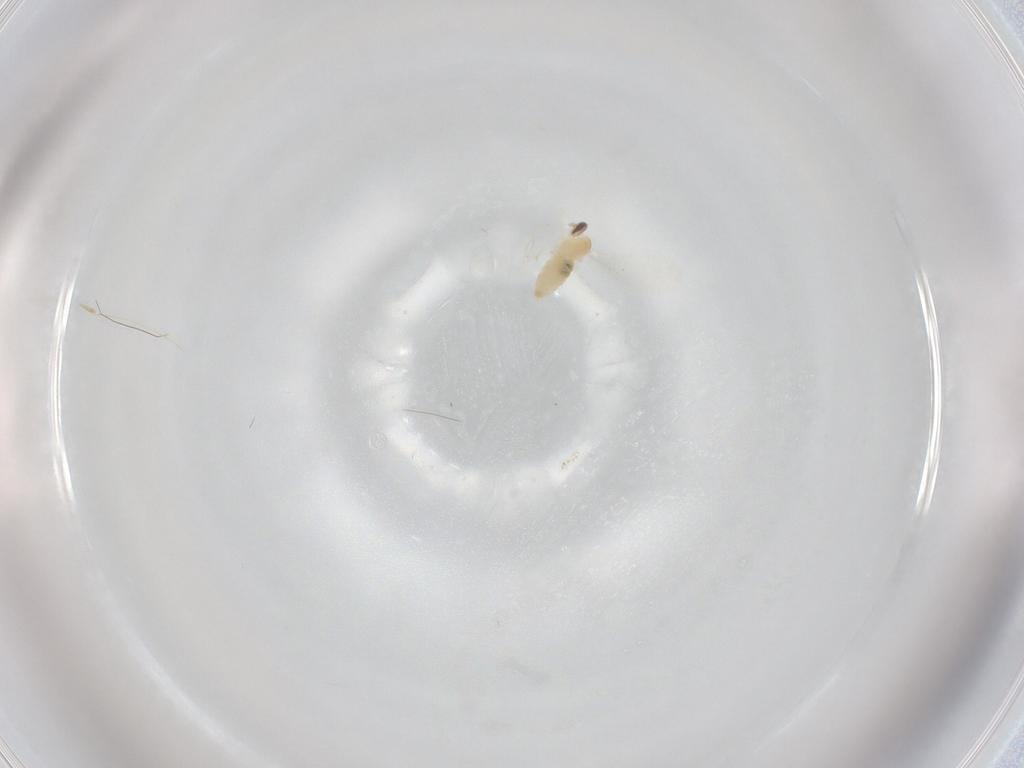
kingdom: Animalia
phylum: Arthropoda
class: Insecta
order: Diptera
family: Cecidomyiidae
